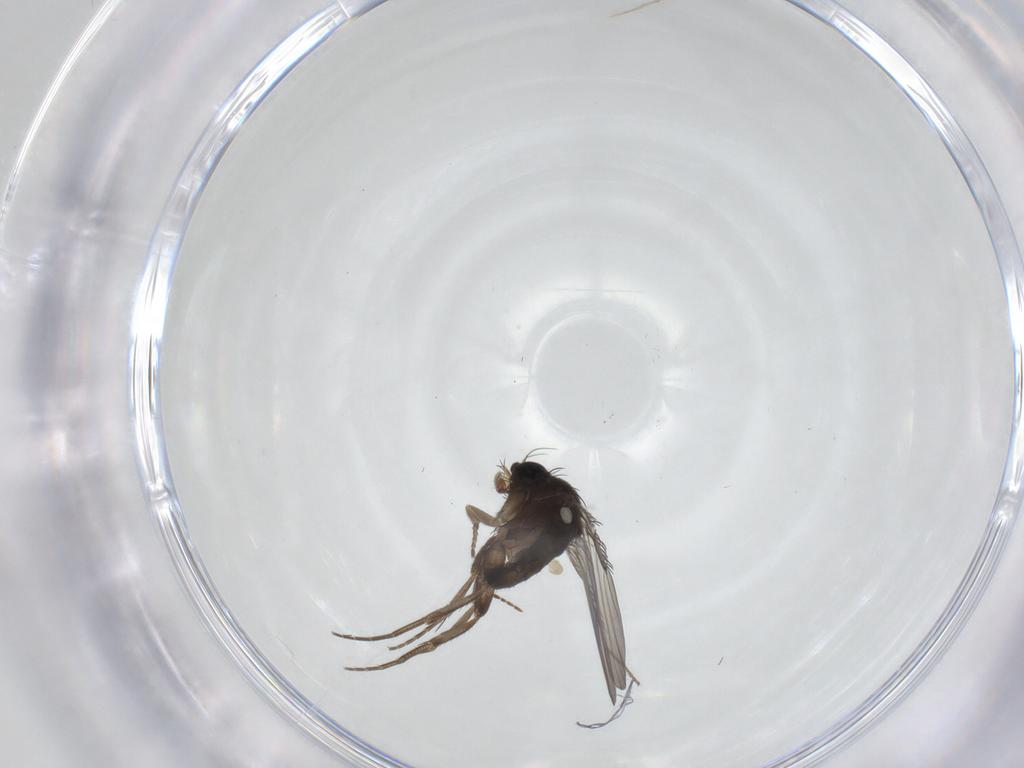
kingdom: Animalia
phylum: Arthropoda
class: Insecta
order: Diptera
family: Phoridae
